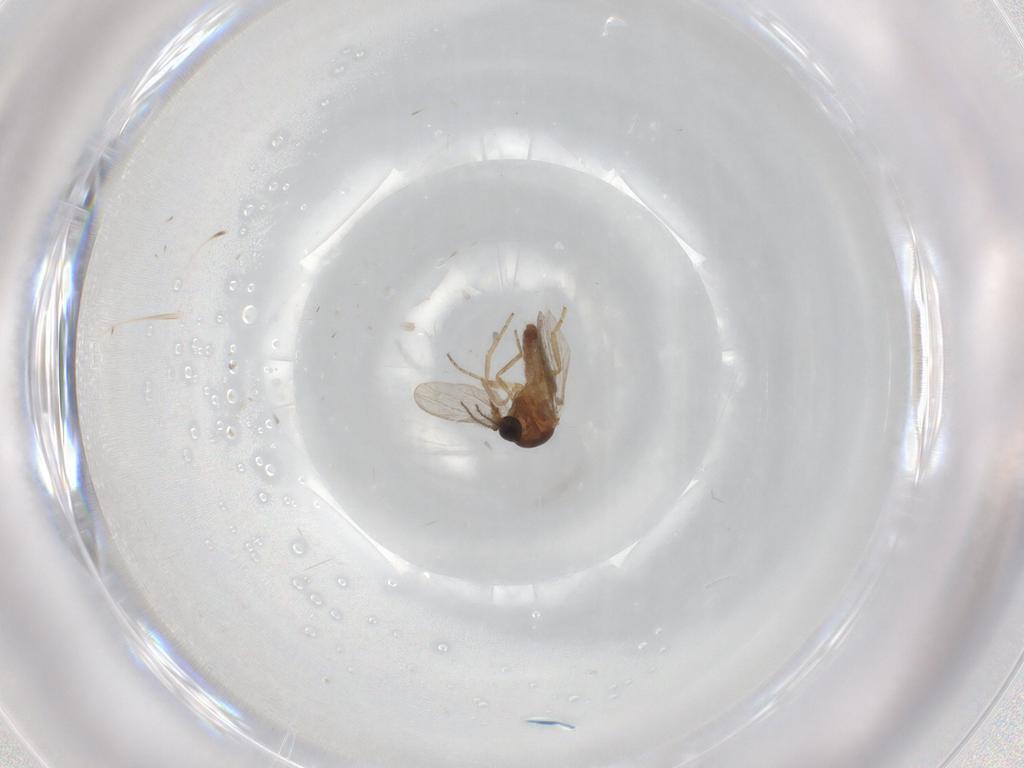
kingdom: Animalia
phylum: Arthropoda
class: Insecta
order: Diptera
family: Ceratopogonidae
